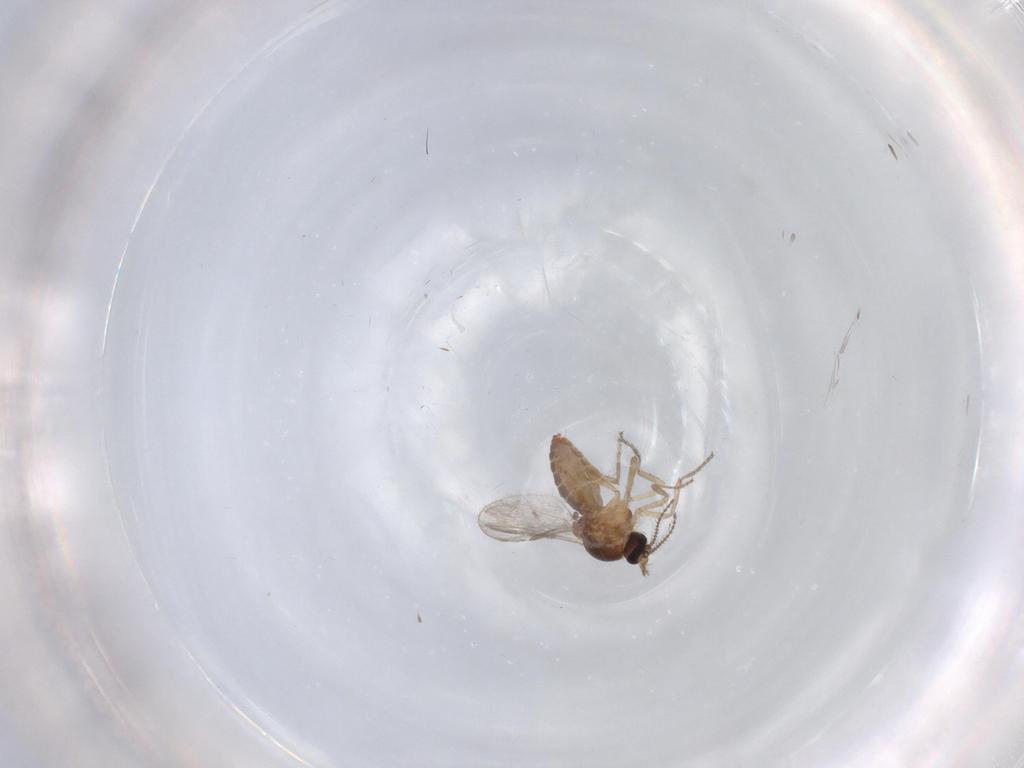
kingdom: Animalia
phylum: Arthropoda
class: Insecta
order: Diptera
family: Ceratopogonidae
